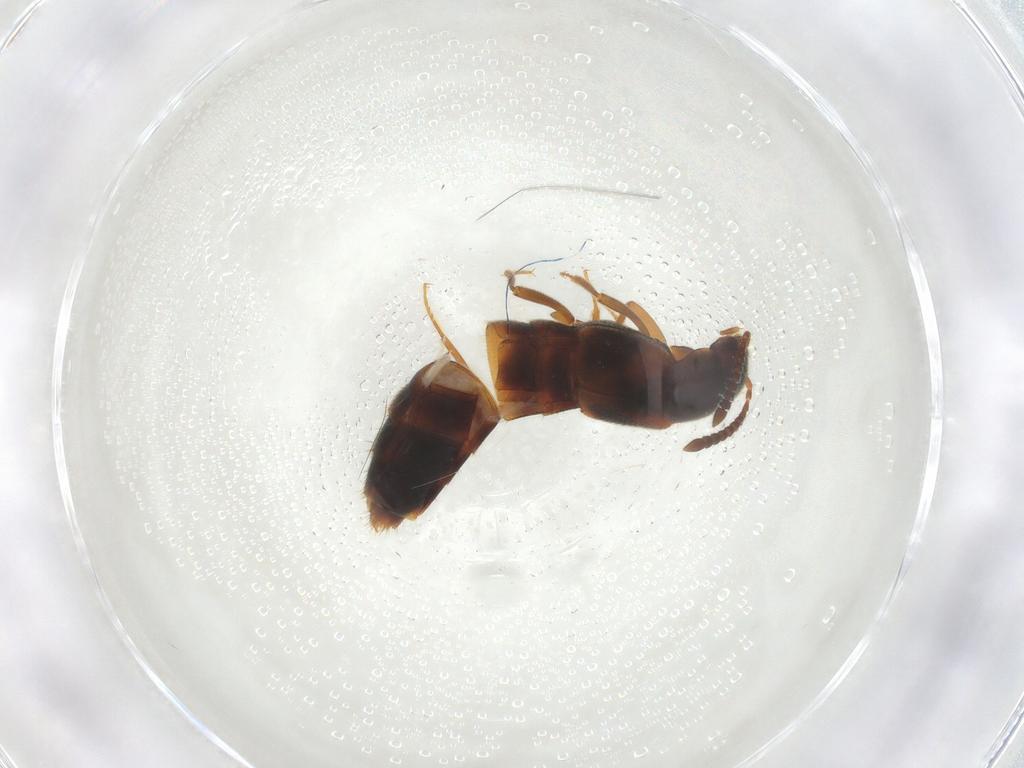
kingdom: Animalia
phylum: Arthropoda
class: Insecta
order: Coleoptera
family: Staphylinidae
